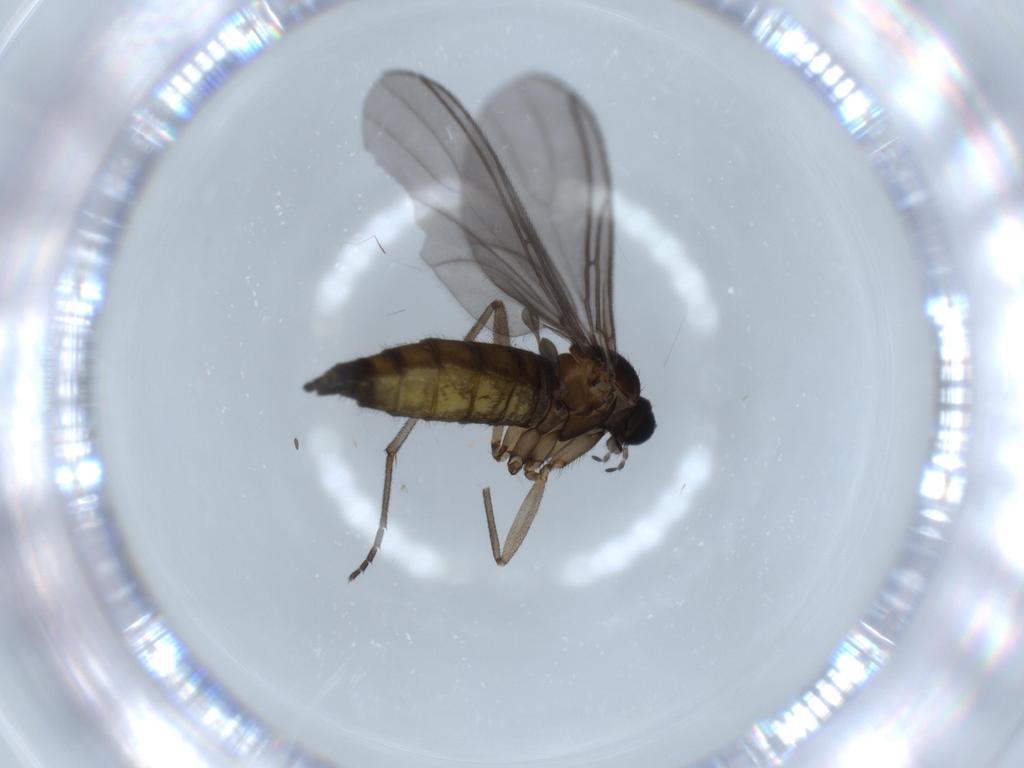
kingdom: Animalia
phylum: Arthropoda
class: Insecta
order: Diptera
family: Sciaridae
